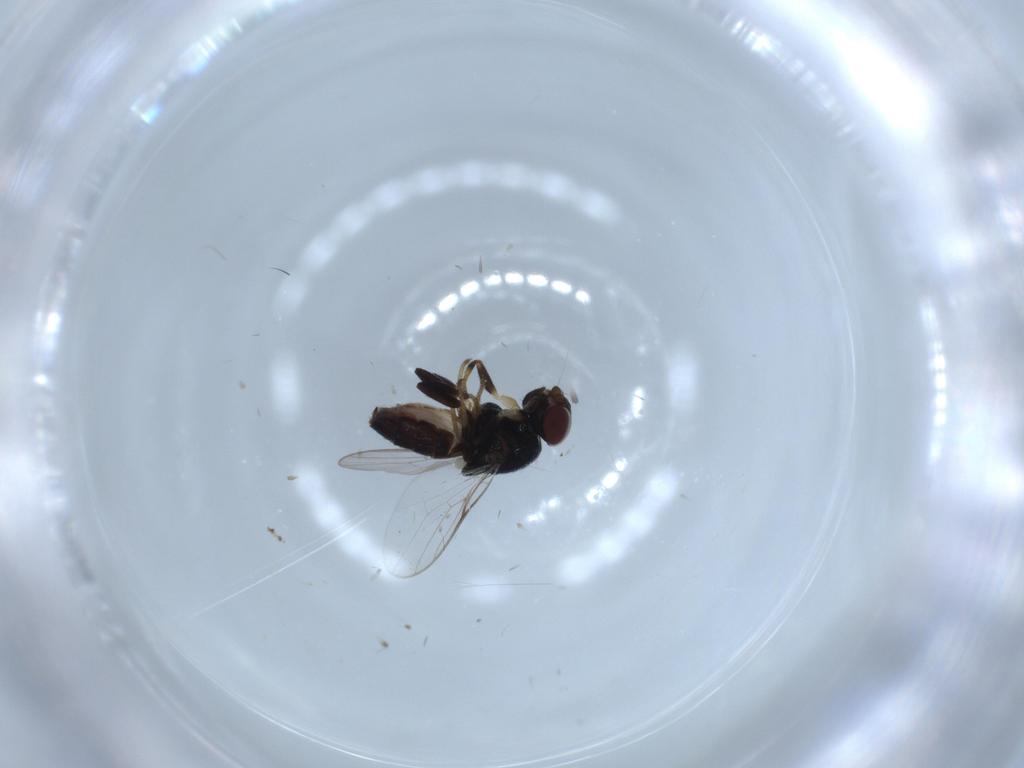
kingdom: Animalia
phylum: Arthropoda
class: Insecta
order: Diptera
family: Chloropidae
